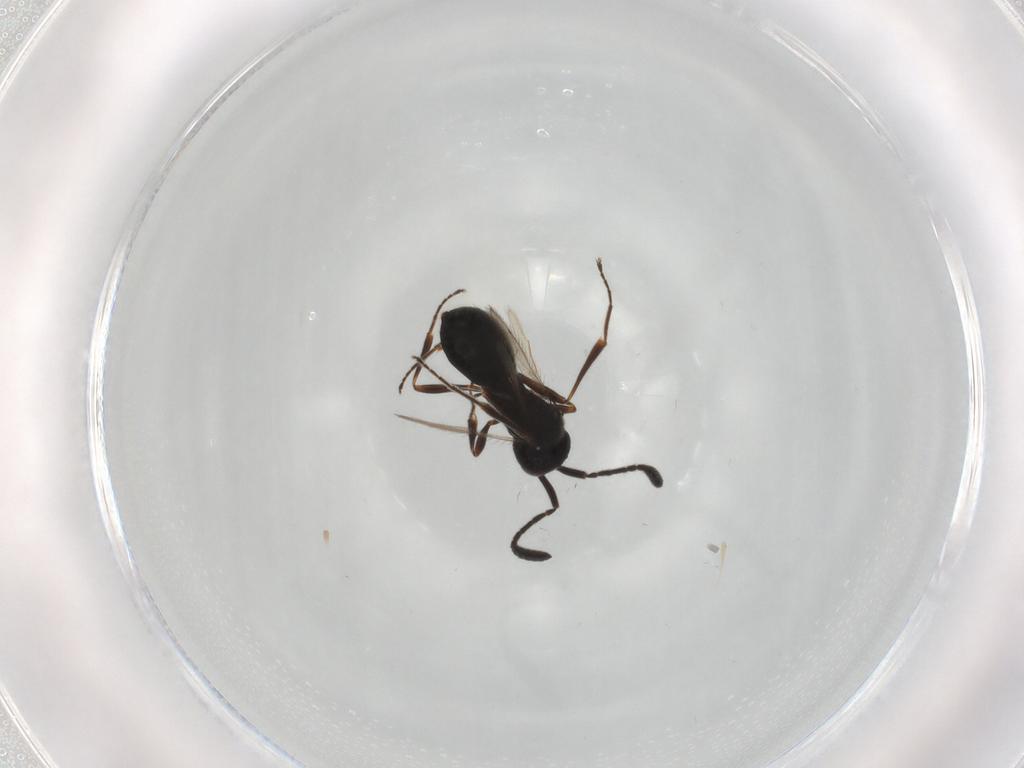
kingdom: Animalia
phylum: Arthropoda
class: Insecta
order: Hymenoptera
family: Scelionidae
